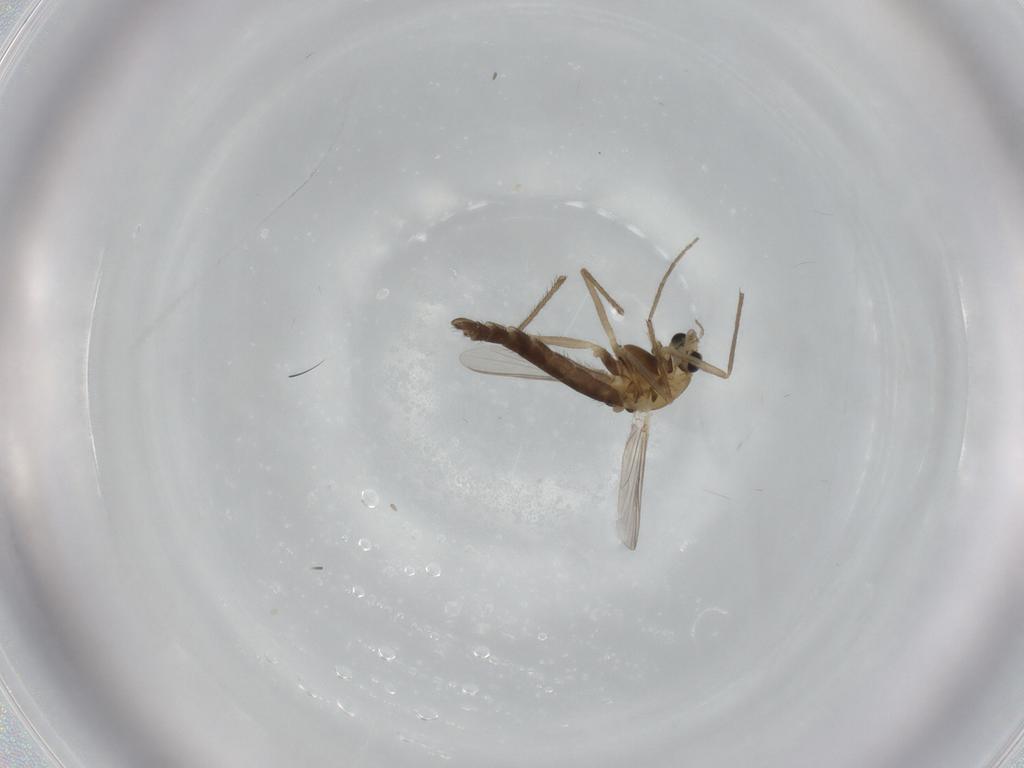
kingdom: Animalia
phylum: Arthropoda
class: Insecta
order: Diptera
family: Chironomidae
